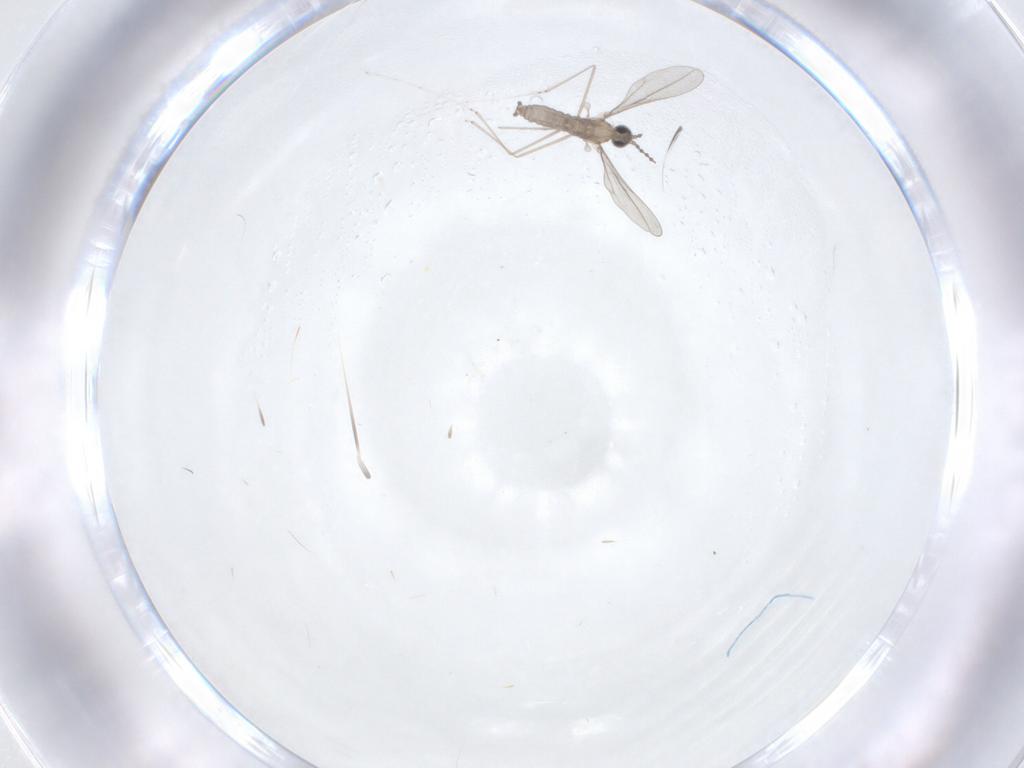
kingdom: Animalia
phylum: Arthropoda
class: Insecta
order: Diptera
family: Cecidomyiidae
